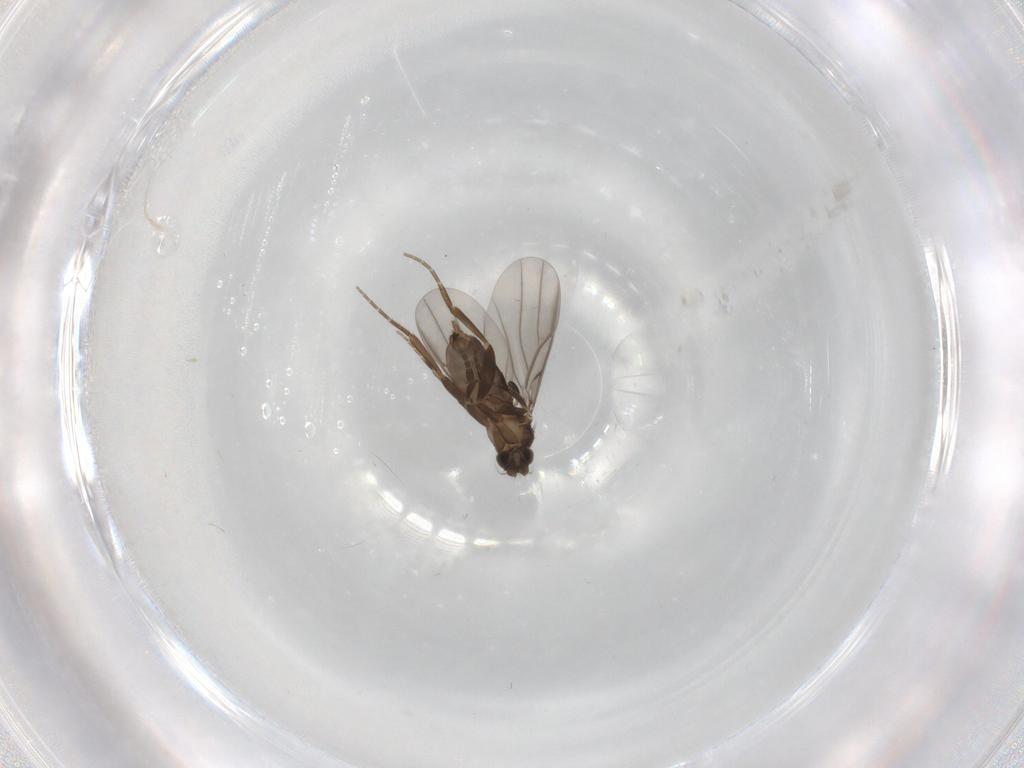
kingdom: Animalia
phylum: Arthropoda
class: Insecta
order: Diptera
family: Phoridae
